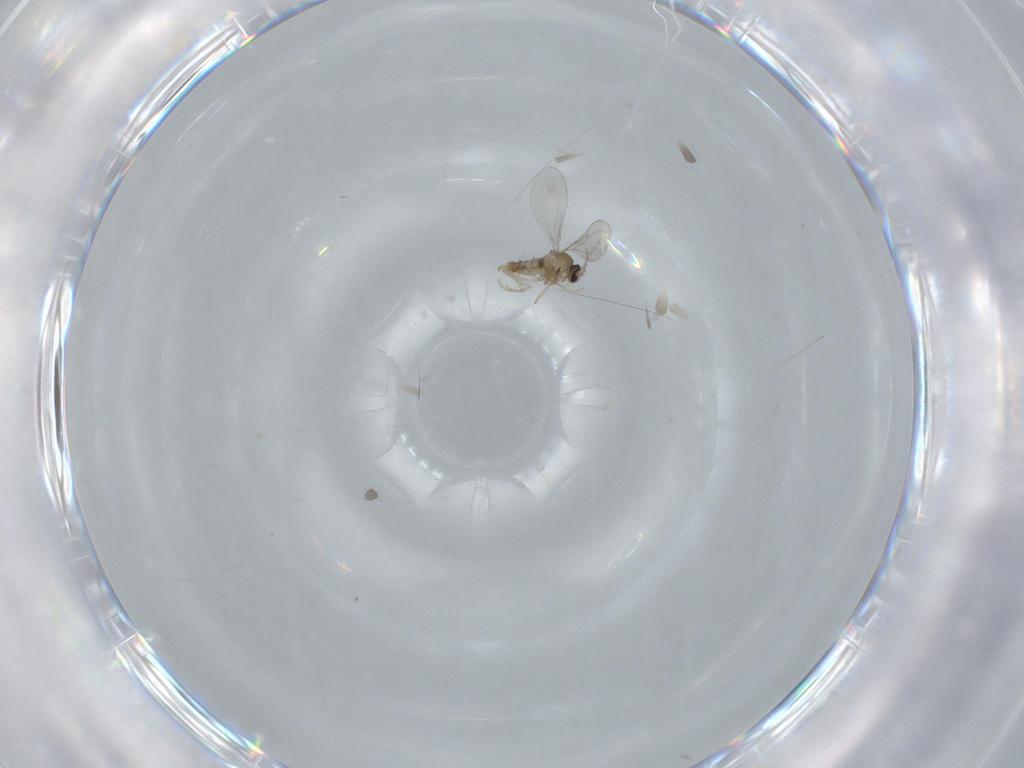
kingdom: Animalia
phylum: Arthropoda
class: Insecta
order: Diptera
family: Cecidomyiidae
